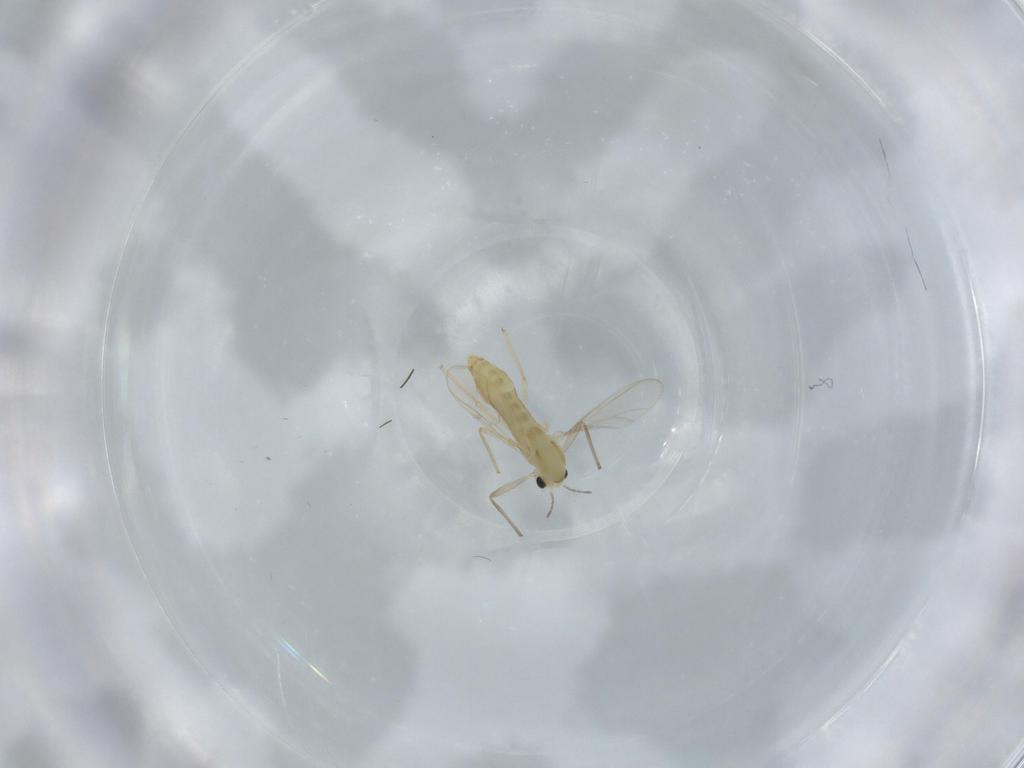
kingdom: Animalia
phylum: Arthropoda
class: Insecta
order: Diptera
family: Chironomidae
